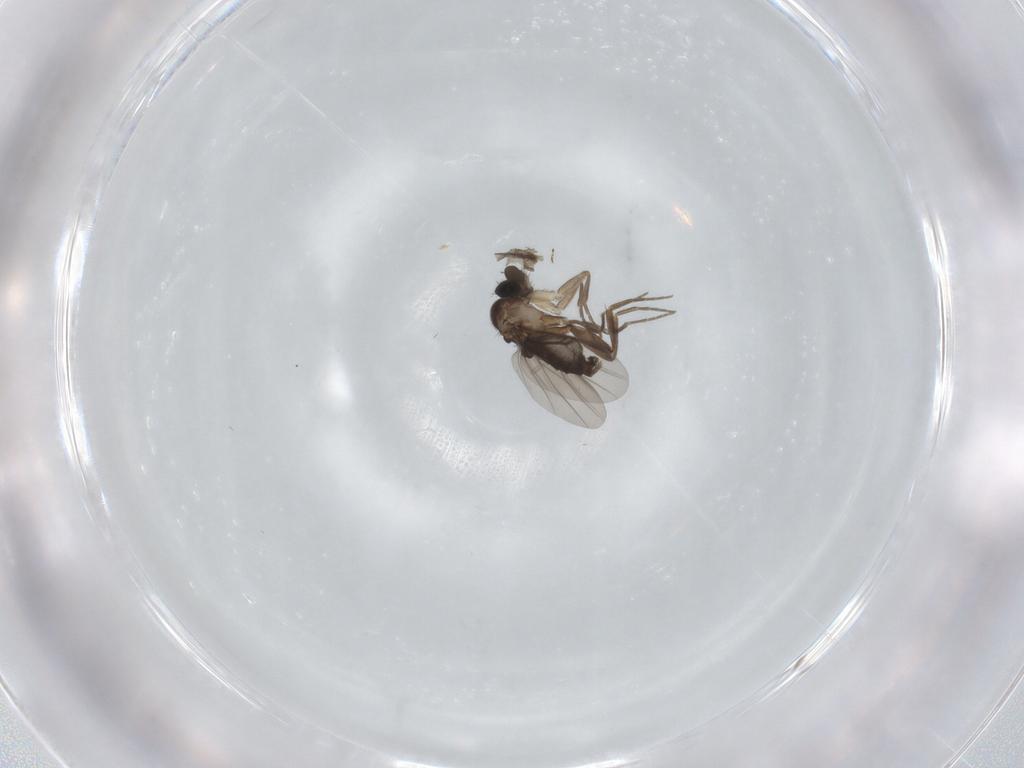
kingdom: Animalia
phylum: Arthropoda
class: Insecta
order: Diptera
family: Phoridae
